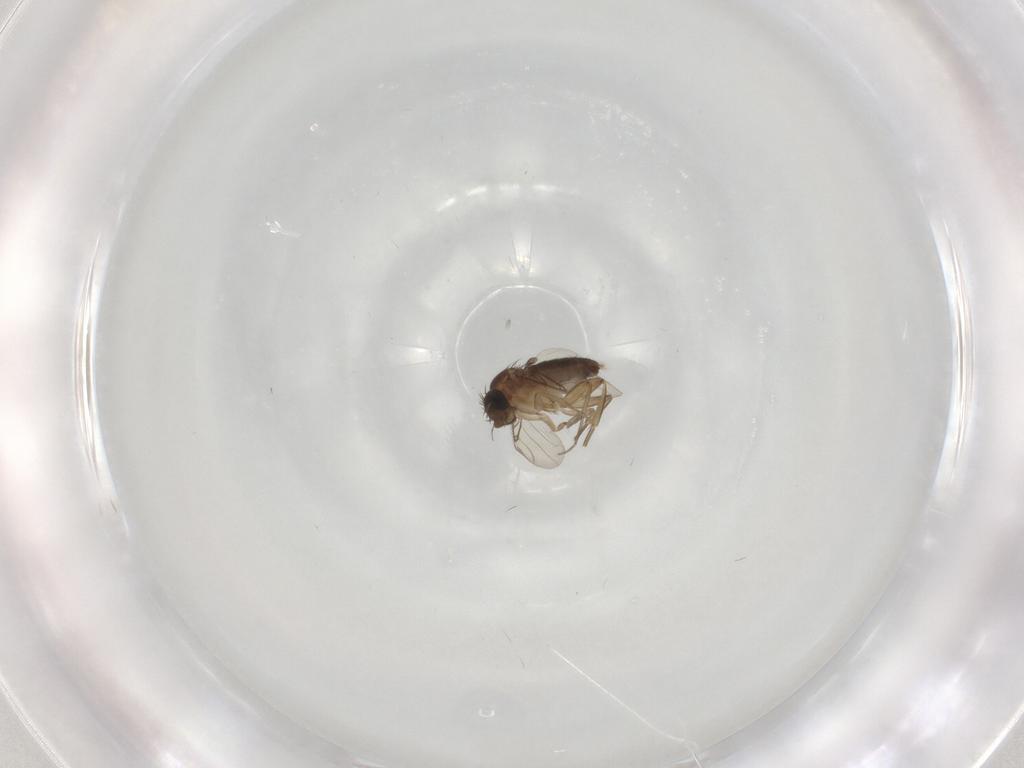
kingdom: Animalia
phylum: Arthropoda
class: Insecta
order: Diptera
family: Phoridae
